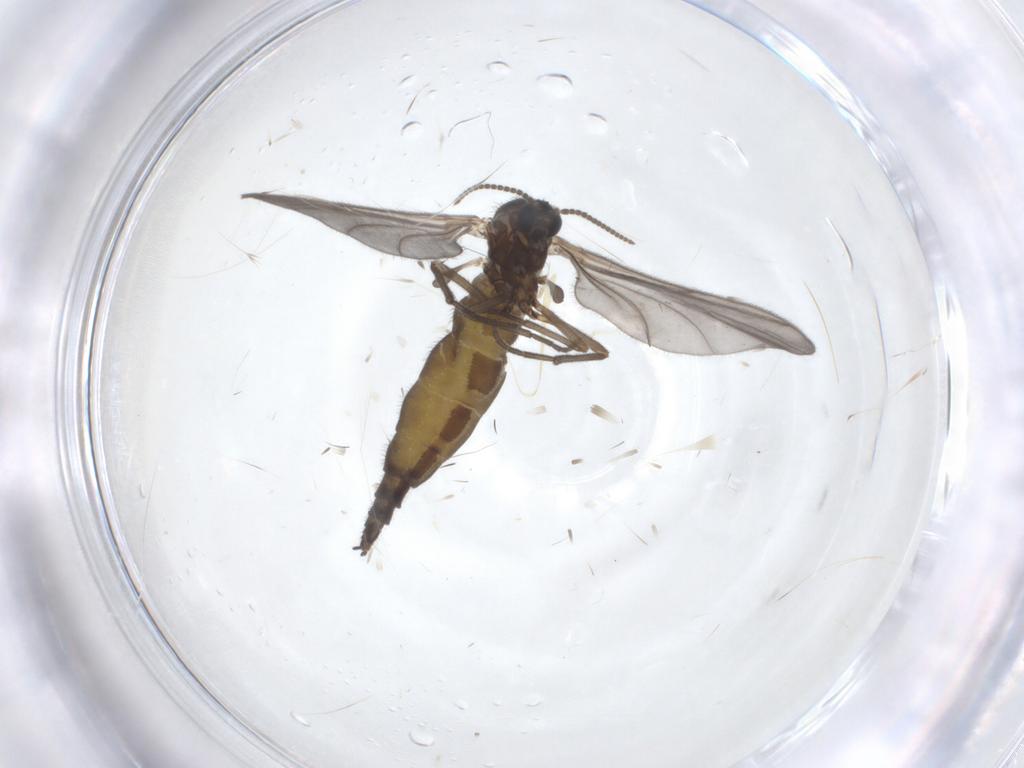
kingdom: Animalia
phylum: Arthropoda
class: Insecta
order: Diptera
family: Sciaridae
